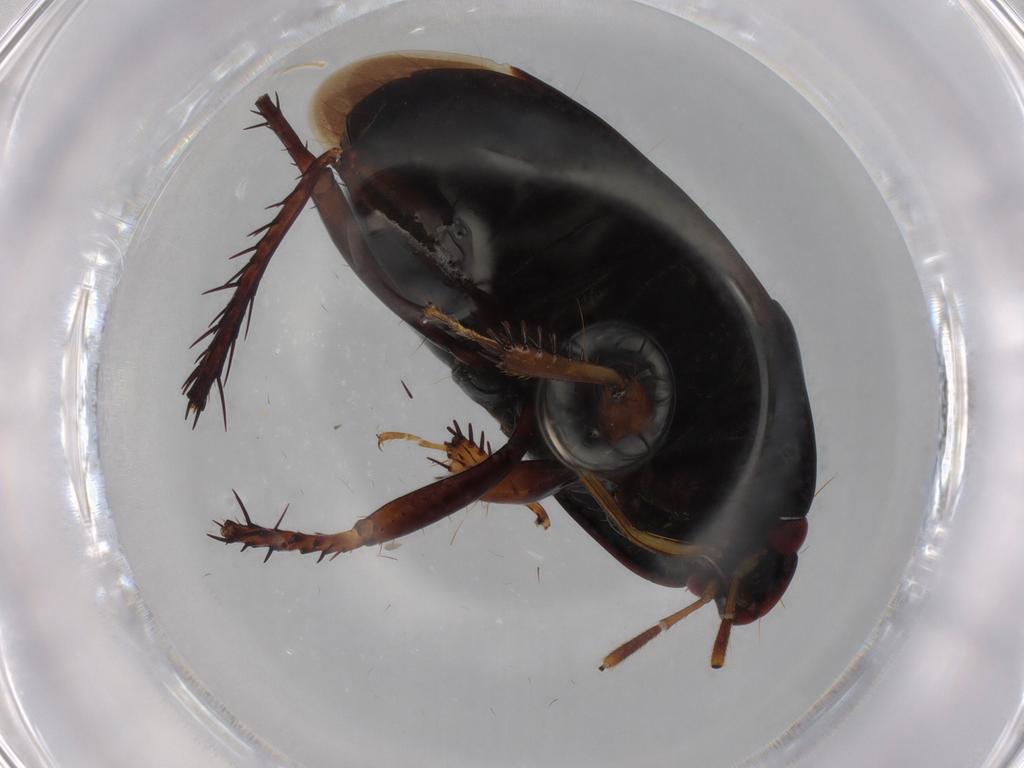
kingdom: Animalia
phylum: Arthropoda
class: Insecta
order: Hemiptera
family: Cydnidae
